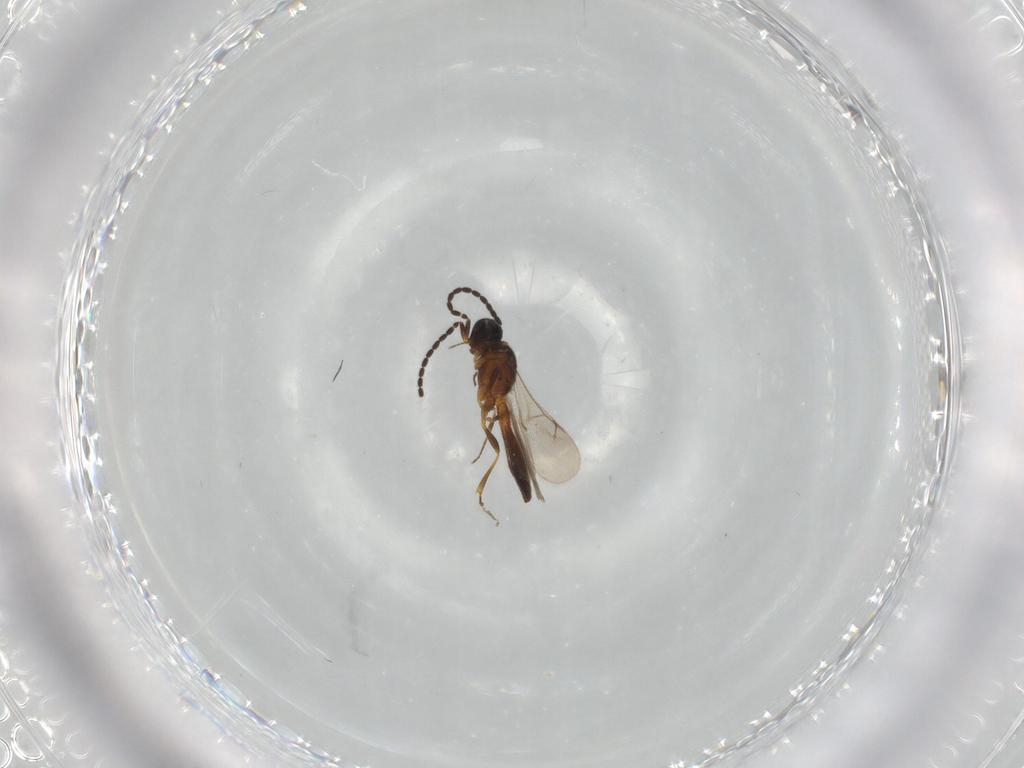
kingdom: Animalia
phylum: Arthropoda
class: Insecta
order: Hymenoptera
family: Scelionidae
